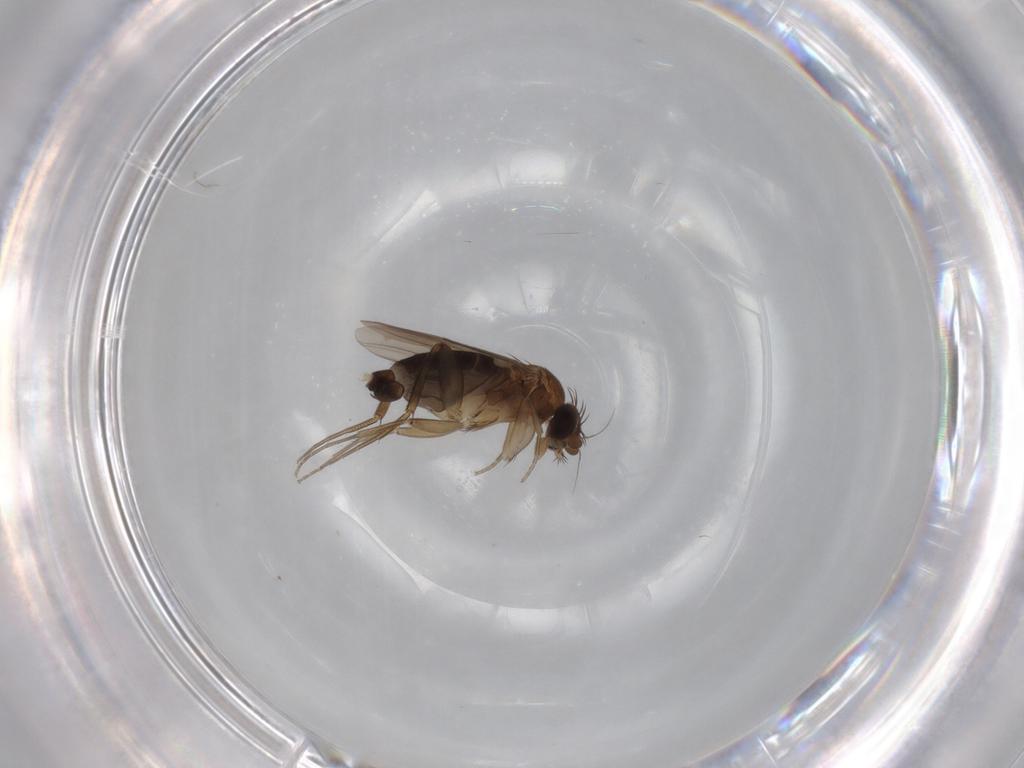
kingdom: Animalia
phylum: Arthropoda
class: Insecta
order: Diptera
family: Phoridae
